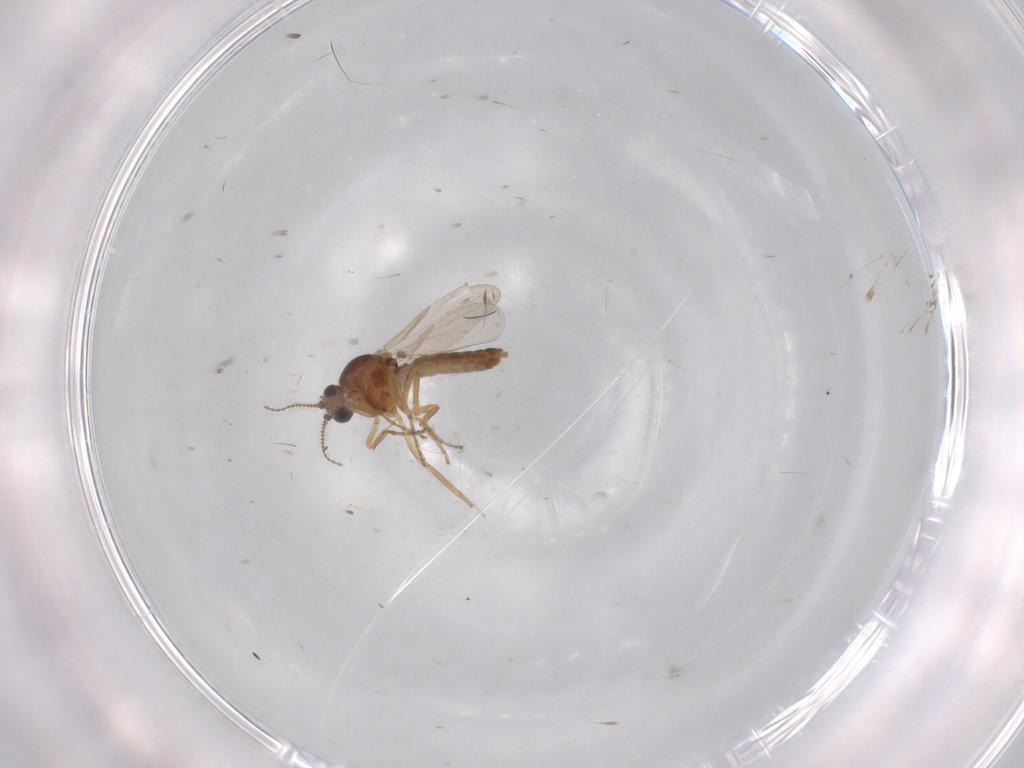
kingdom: Animalia
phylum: Arthropoda
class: Insecta
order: Diptera
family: Ceratopogonidae
